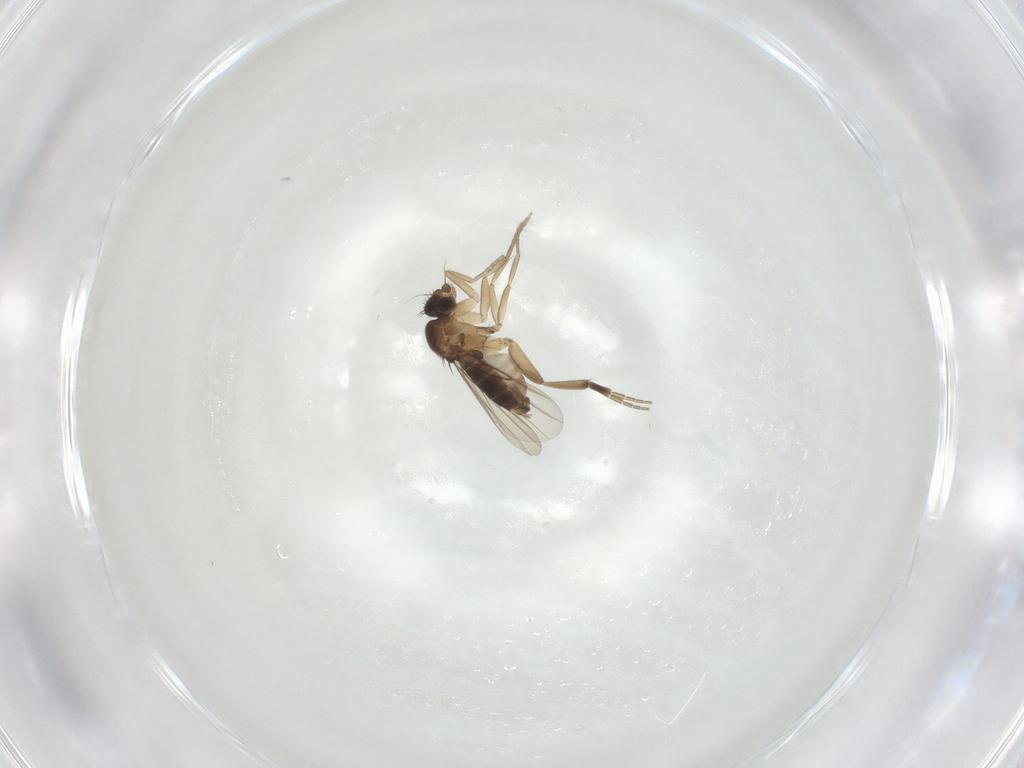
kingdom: Animalia
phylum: Arthropoda
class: Insecta
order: Diptera
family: Phoridae
